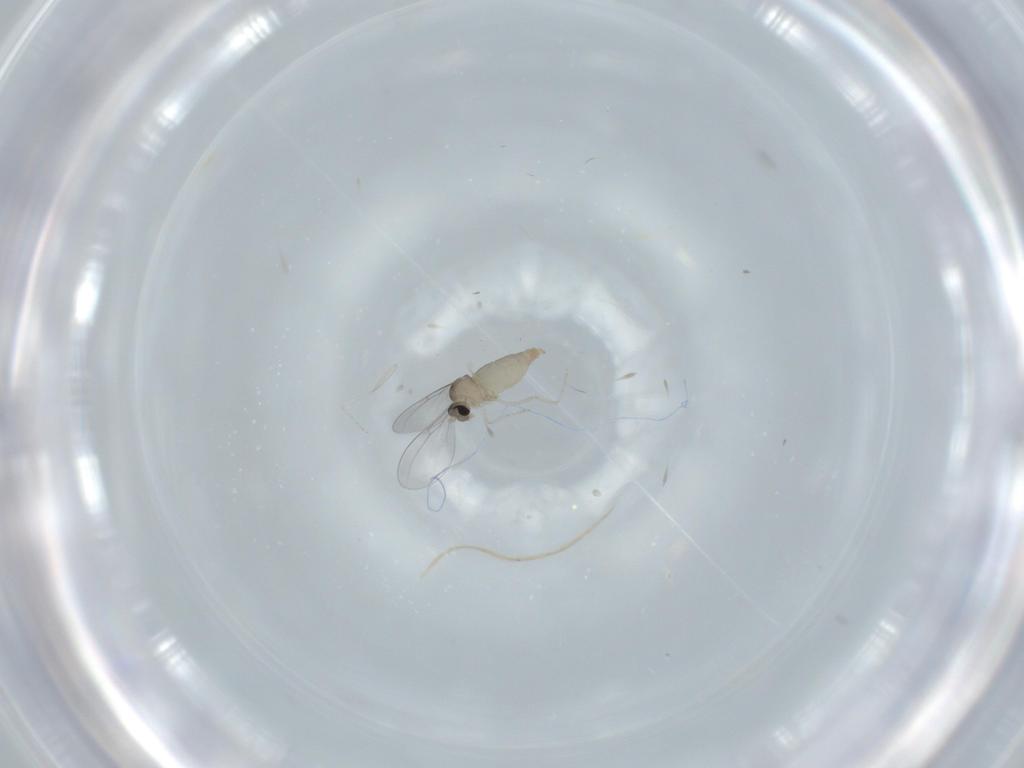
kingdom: Animalia
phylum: Arthropoda
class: Insecta
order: Diptera
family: Cecidomyiidae
